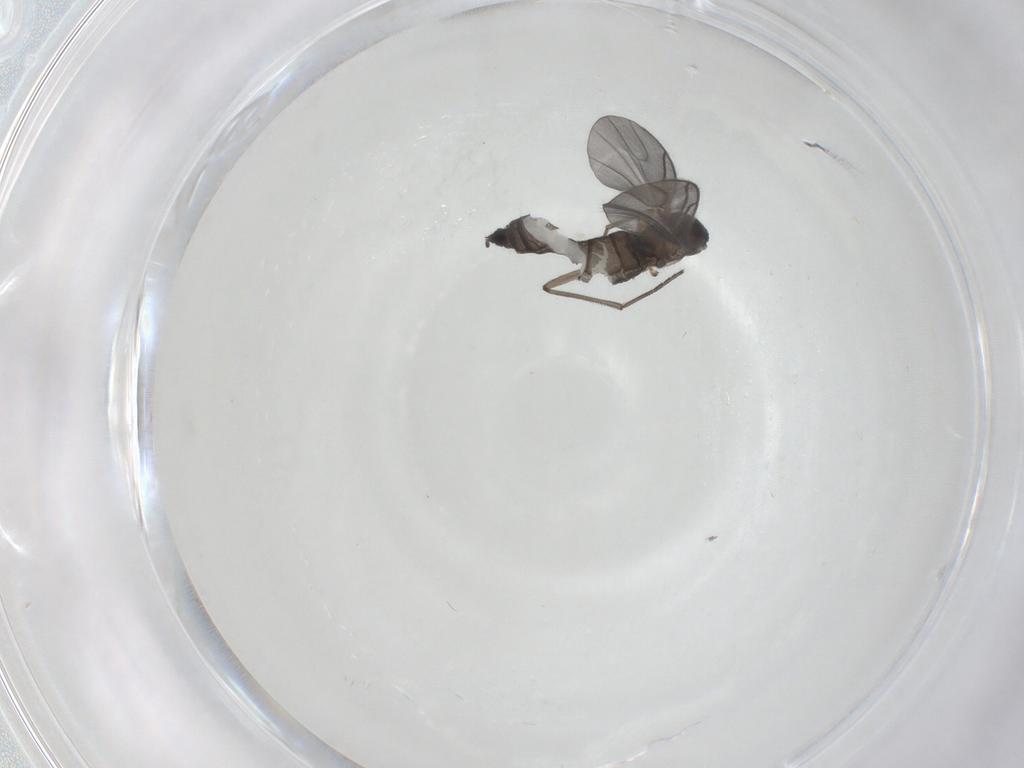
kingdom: Animalia
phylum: Arthropoda
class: Insecta
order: Diptera
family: Sciaridae
